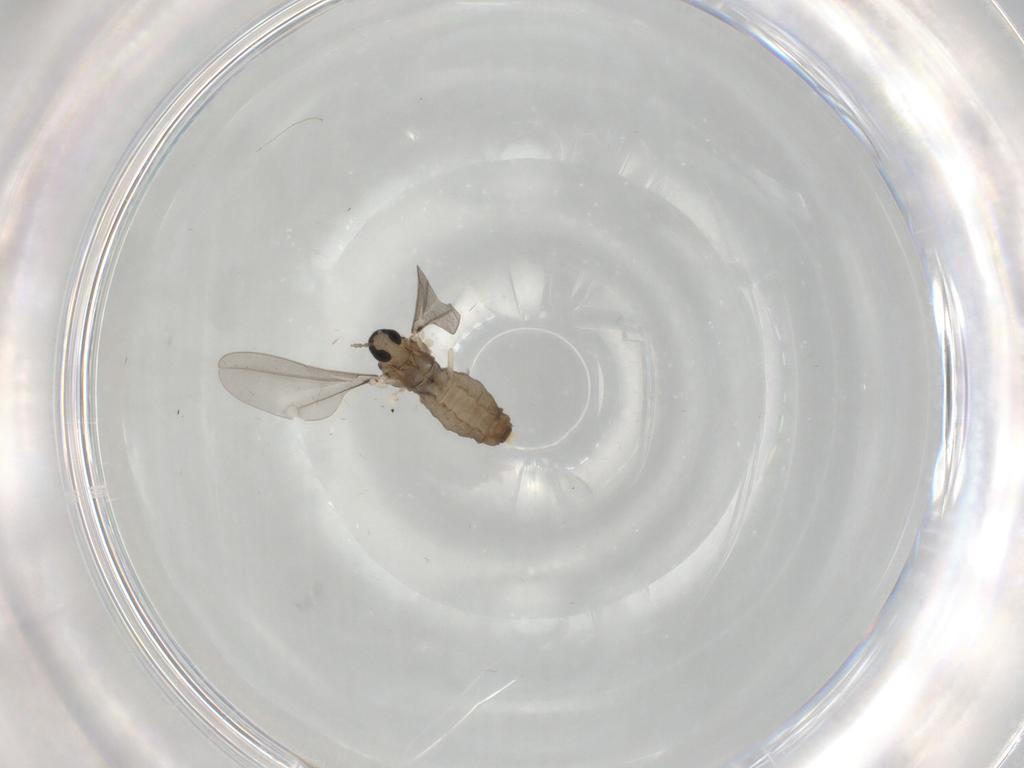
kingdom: Animalia
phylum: Arthropoda
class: Insecta
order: Diptera
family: Cecidomyiidae
